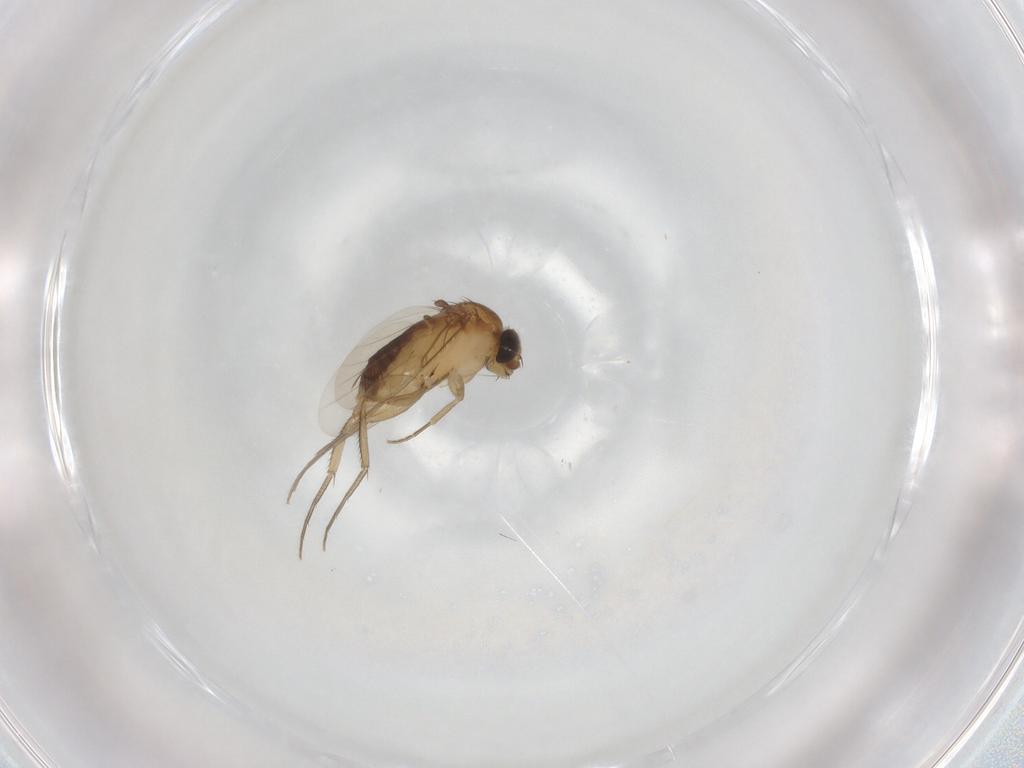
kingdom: Animalia
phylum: Arthropoda
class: Insecta
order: Diptera
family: Phoridae
